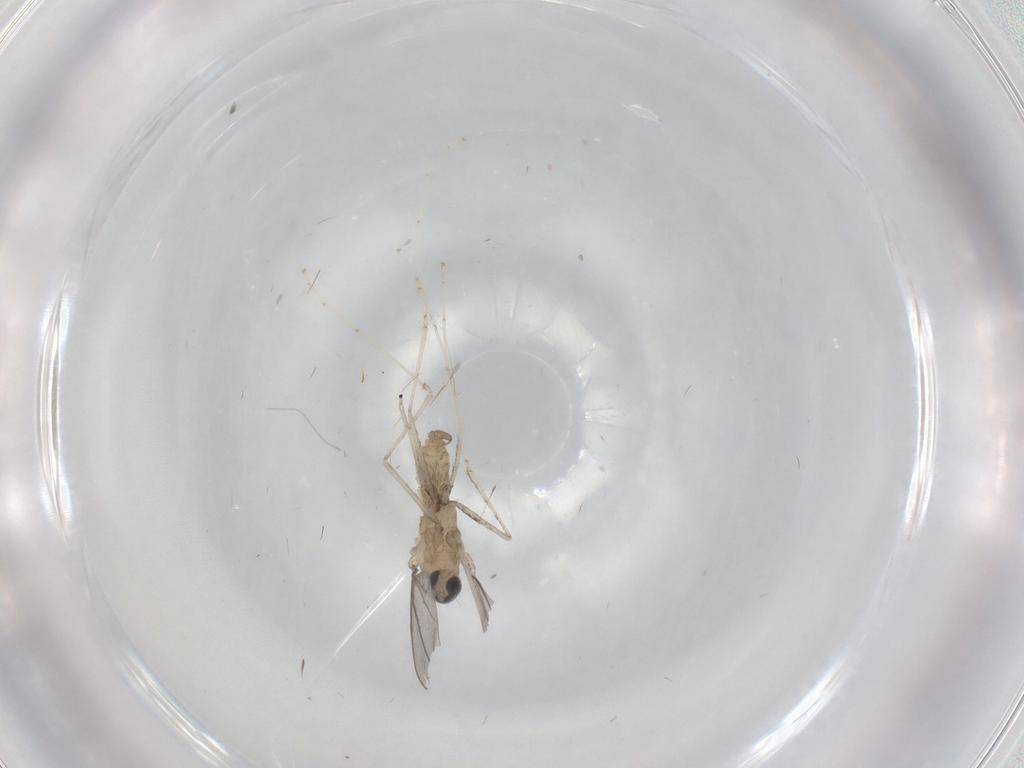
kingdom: Animalia
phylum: Arthropoda
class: Insecta
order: Diptera
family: Cecidomyiidae
